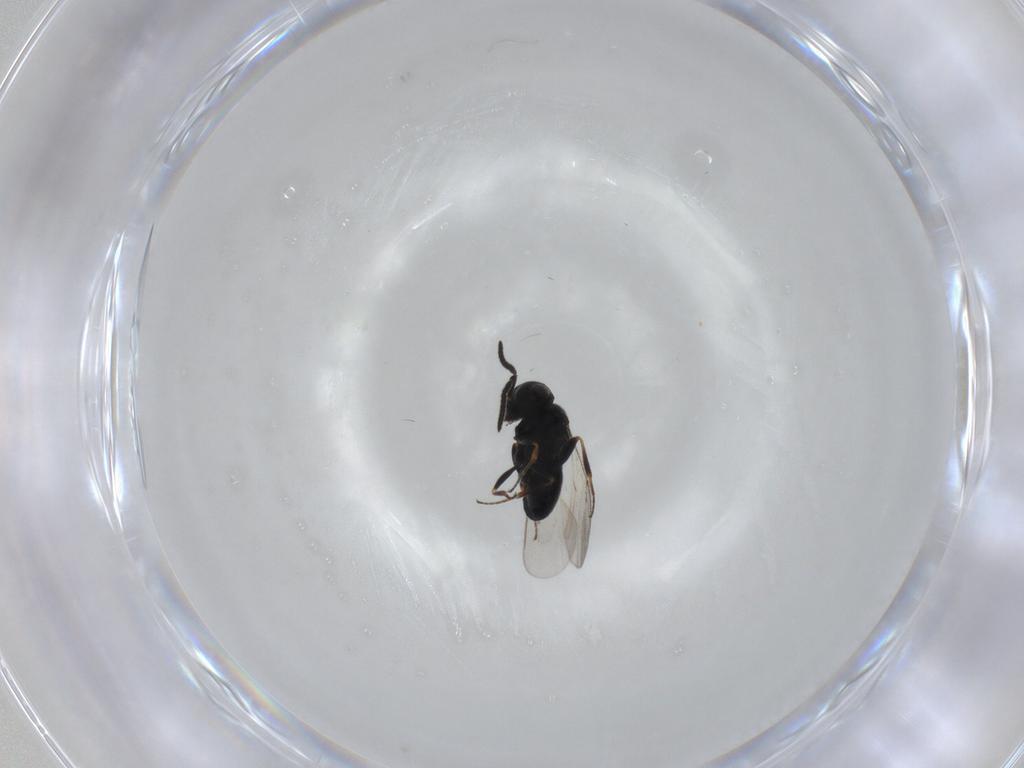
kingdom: Animalia
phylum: Arthropoda
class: Insecta
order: Hymenoptera
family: Scelionidae
